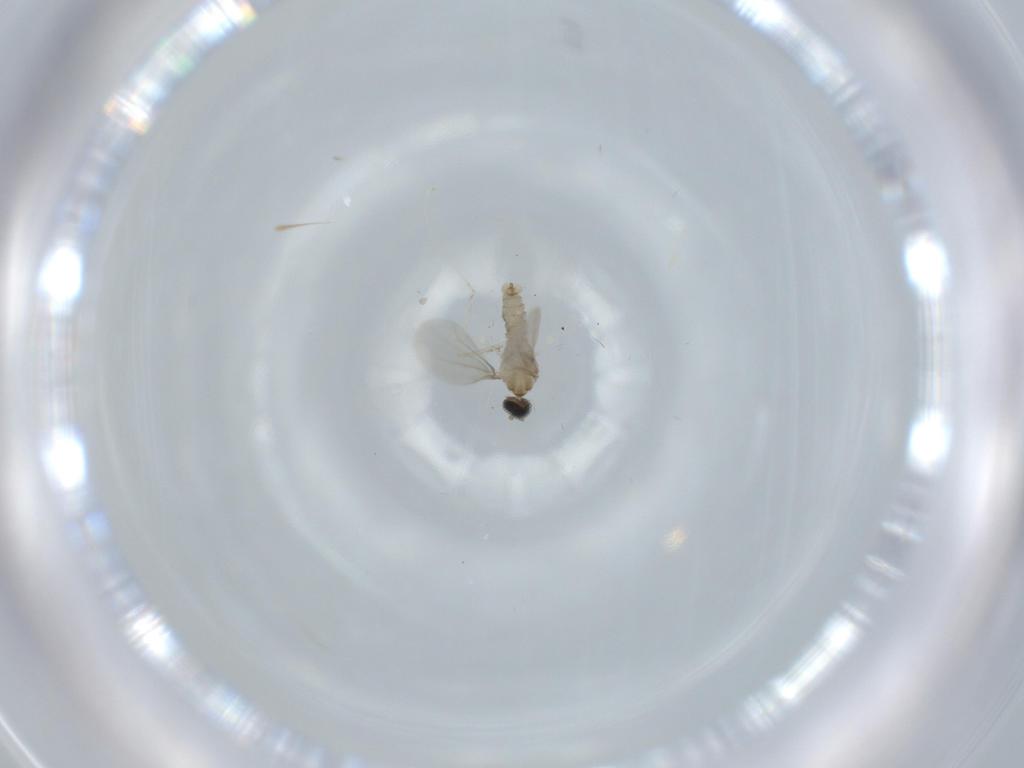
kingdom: Animalia
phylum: Arthropoda
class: Insecta
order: Diptera
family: Cecidomyiidae
